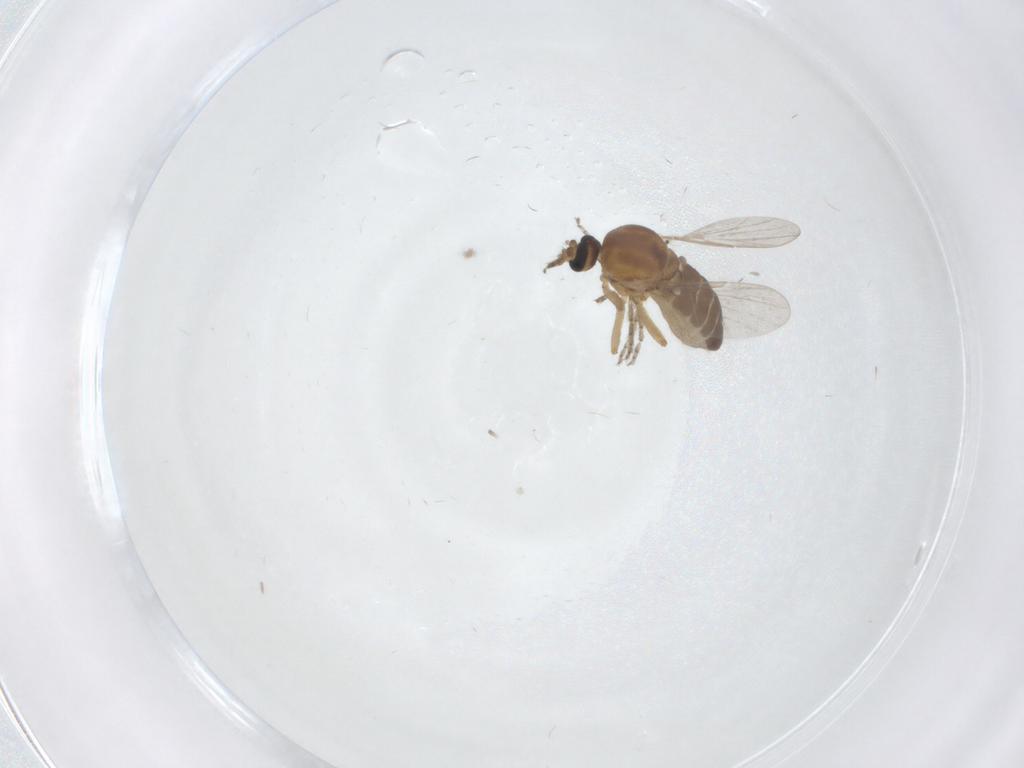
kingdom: Animalia
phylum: Arthropoda
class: Insecta
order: Diptera
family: Ceratopogonidae
